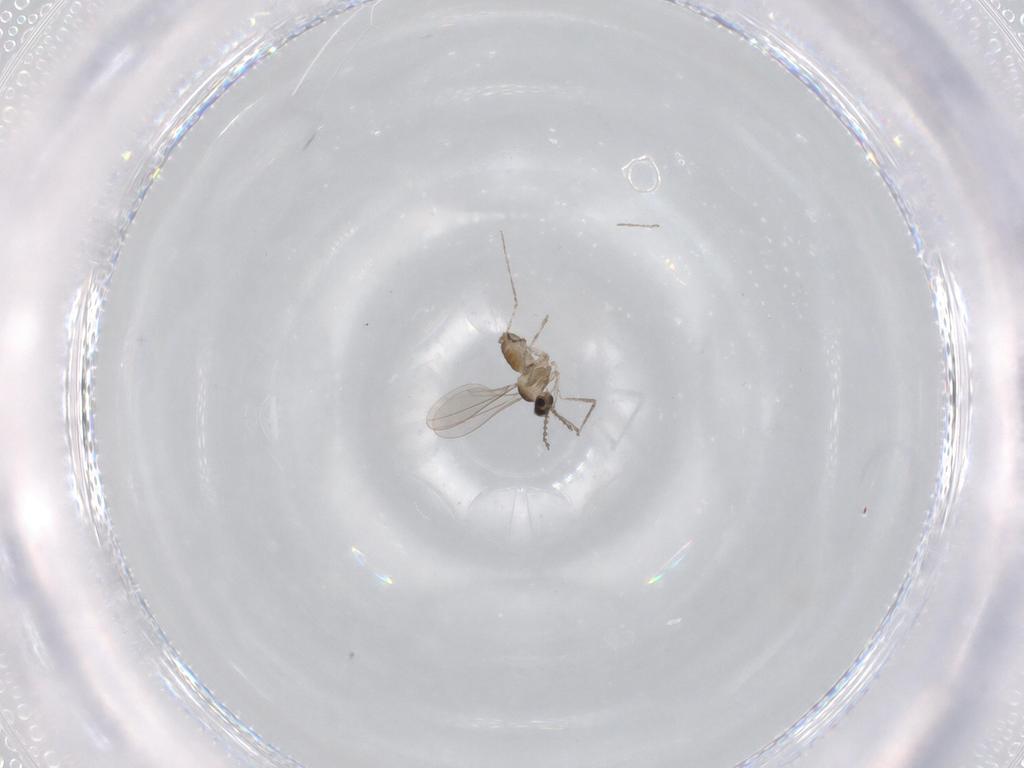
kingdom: Animalia
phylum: Arthropoda
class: Insecta
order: Diptera
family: Cecidomyiidae
